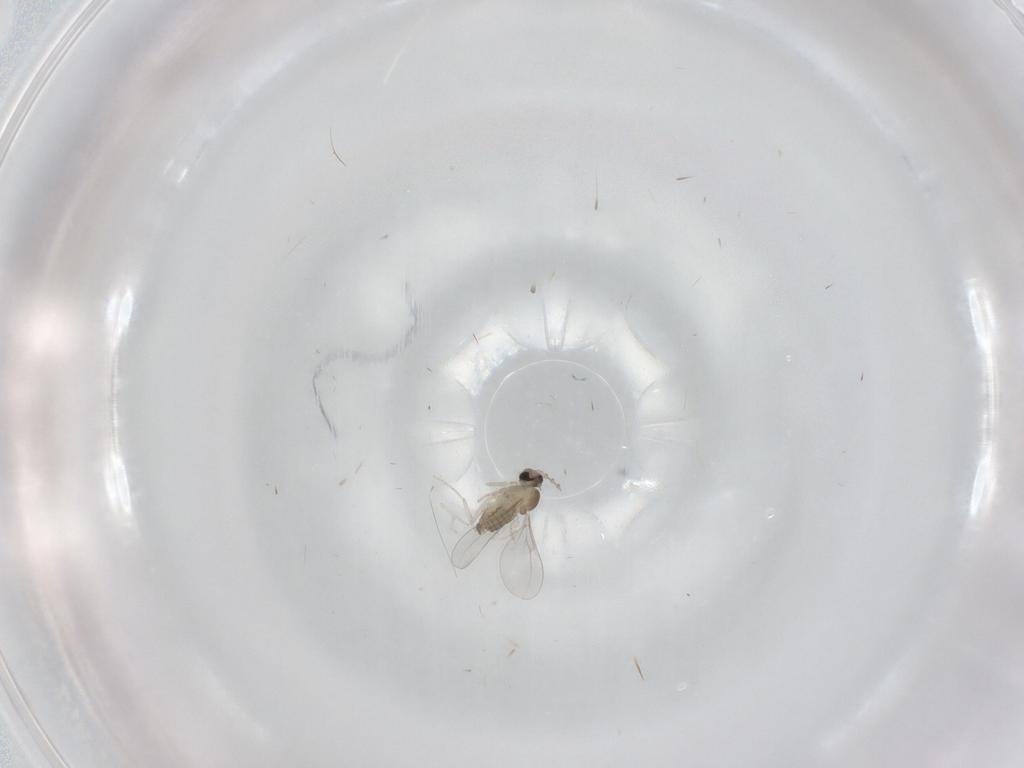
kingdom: Animalia
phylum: Arthropoda
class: Insecta
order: Diptera
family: Cecidomyiidae
